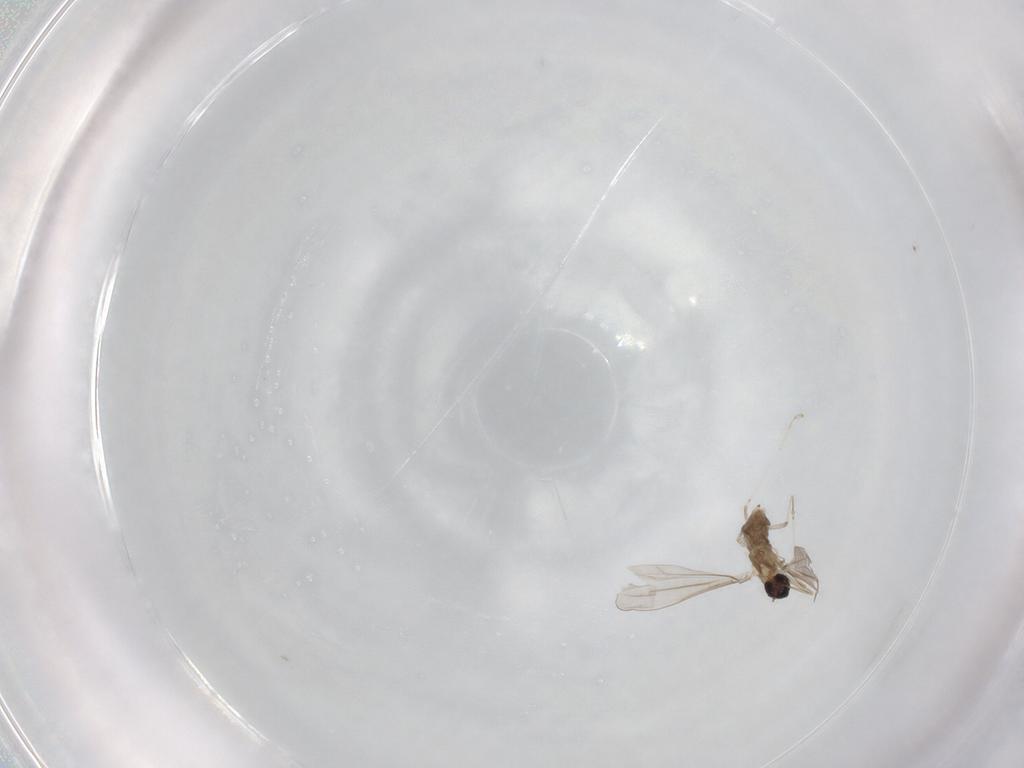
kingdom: Animalia
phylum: Arthropoda
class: Insecta
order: Diptera
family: Cecidomyiidae
